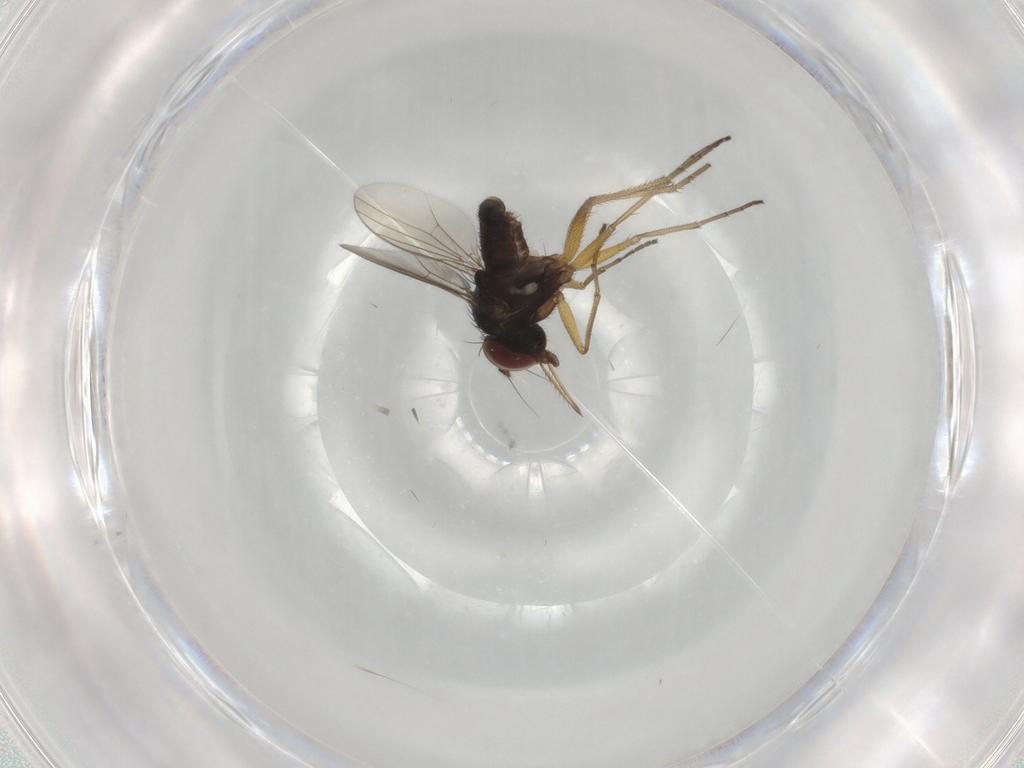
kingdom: Animalia
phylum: Arthropoda
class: Insecta
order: Diptera
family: Dolichopodidae
